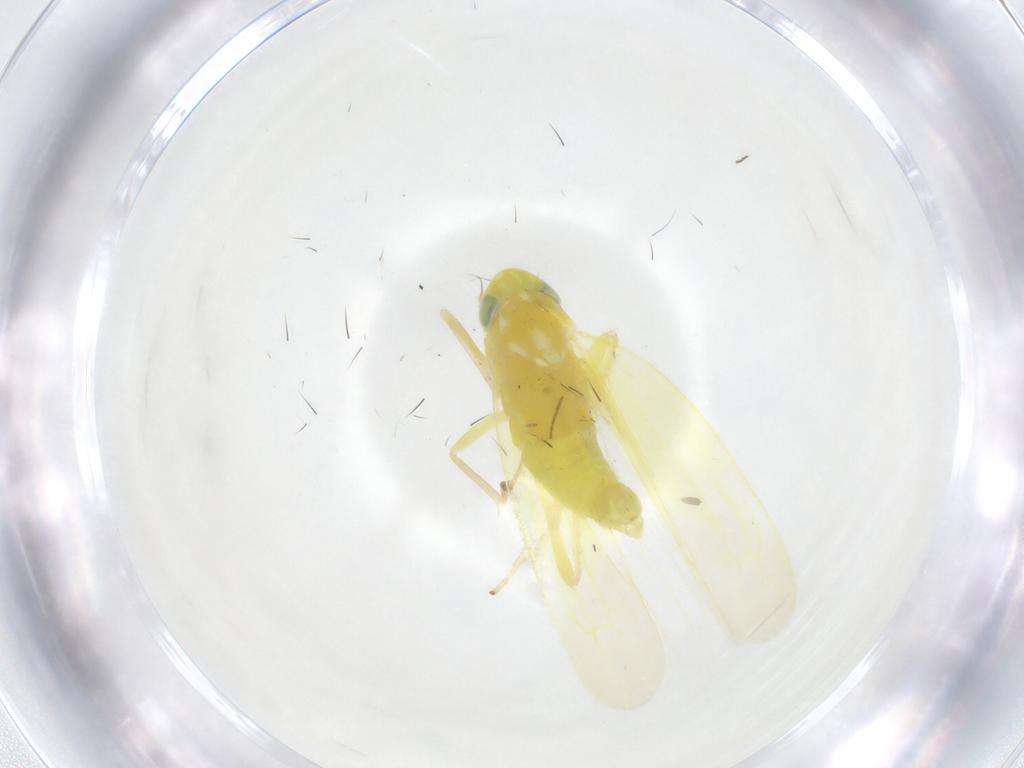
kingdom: Animalia
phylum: Arthropoda
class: Insecta
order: Hemiptera
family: Cicadellidae
